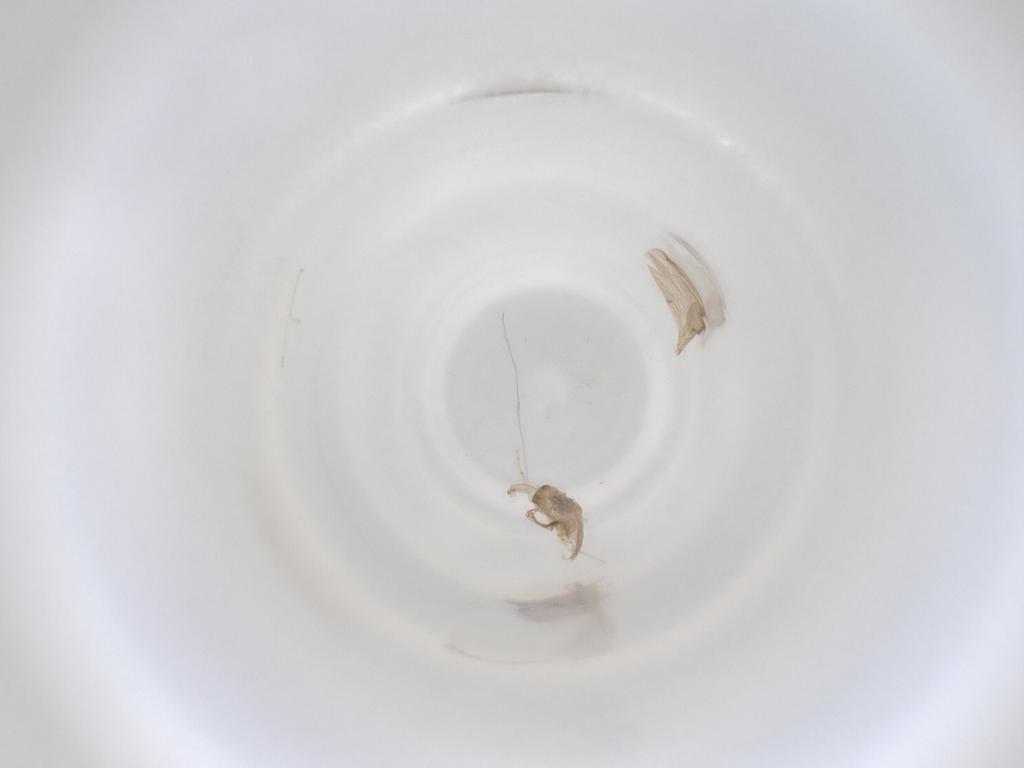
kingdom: Animalia
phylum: Arthropoda
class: Insecta
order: Diptera
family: Cecidomyiidae
